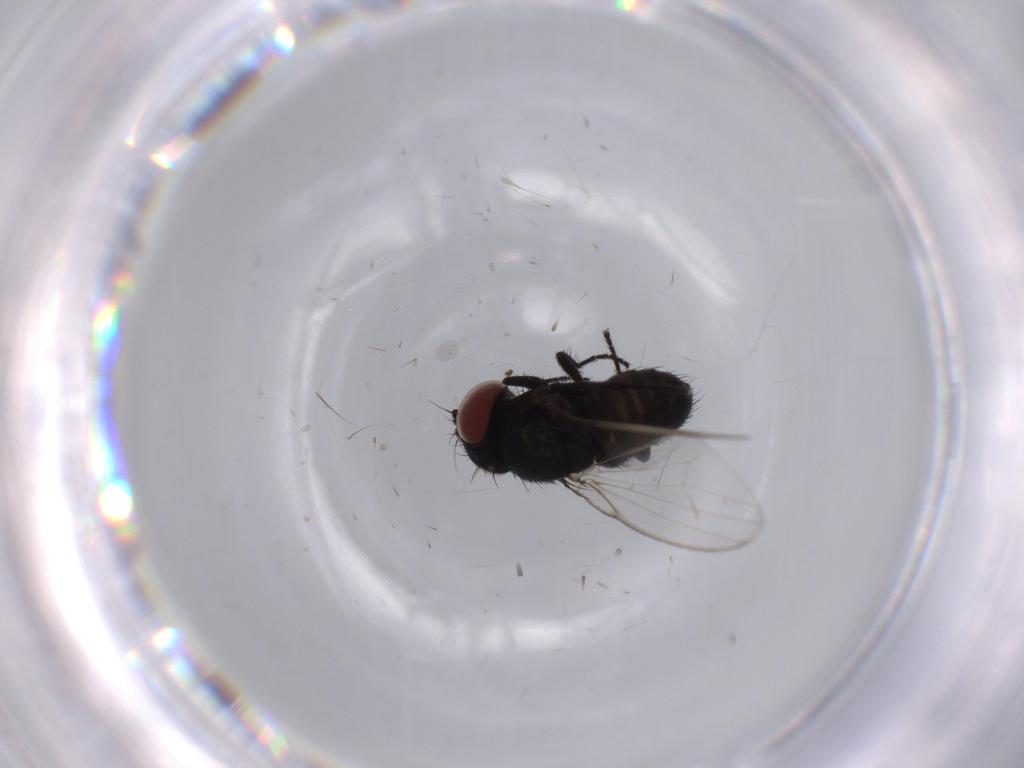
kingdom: Animalia
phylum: Arthropoda
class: Insecta
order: Diptera
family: Milichiidae
